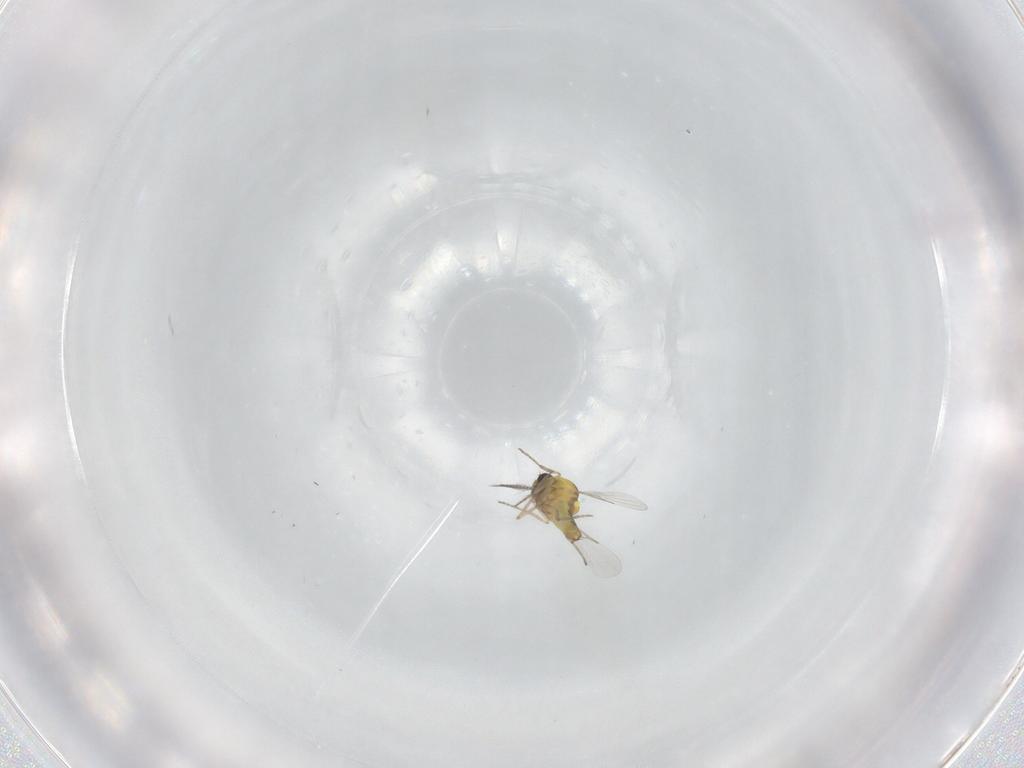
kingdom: Animalia
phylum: Arthropoda
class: Insecta
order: Diptera
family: Ceratopogonidae
